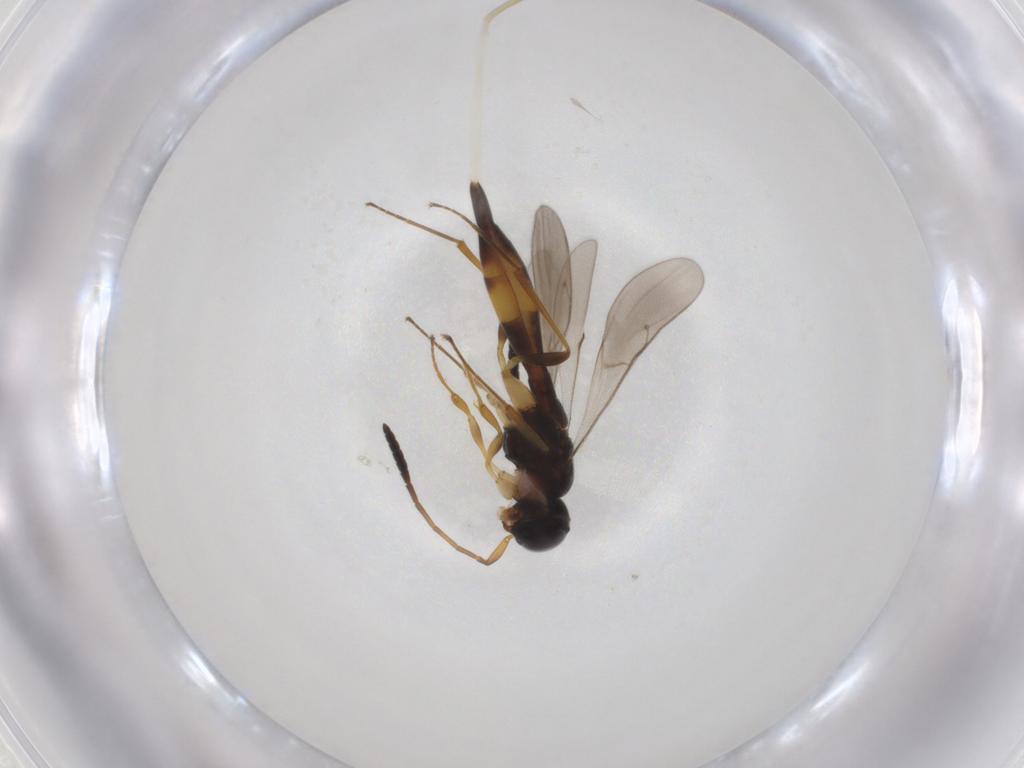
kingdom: Animalia
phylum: Arthropoda
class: Insecta
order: Hymenoptera
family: Scelionidae
